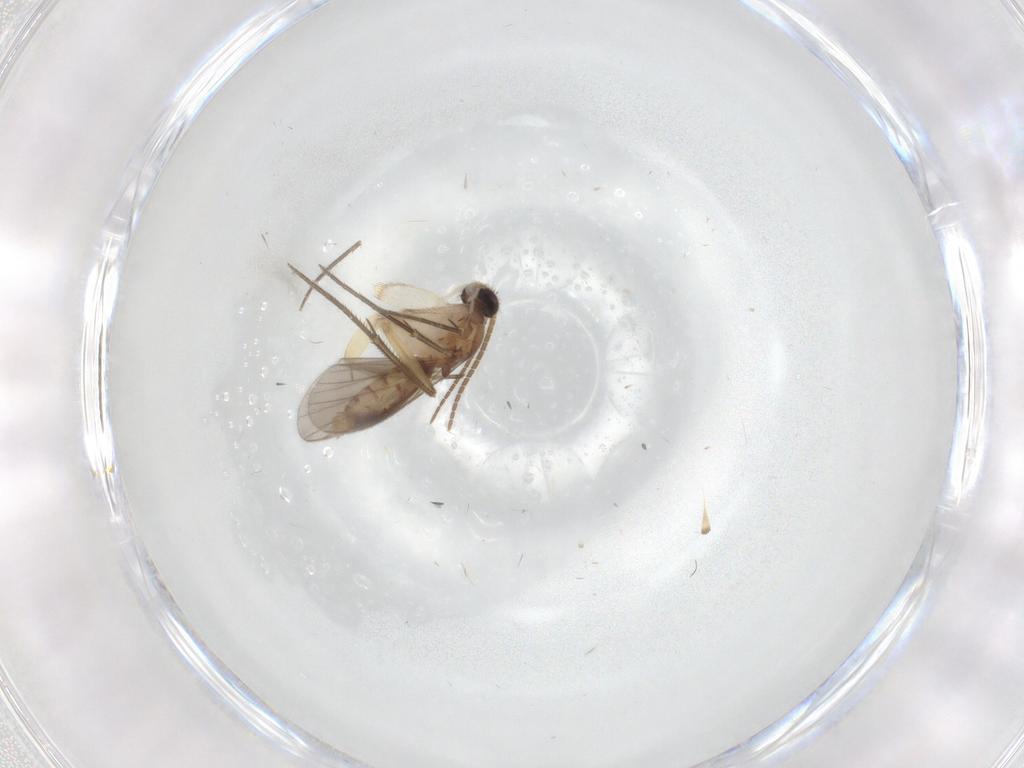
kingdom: Animalia
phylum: Arthropoda
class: Insecta
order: Diptera
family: Mycetophilidae
